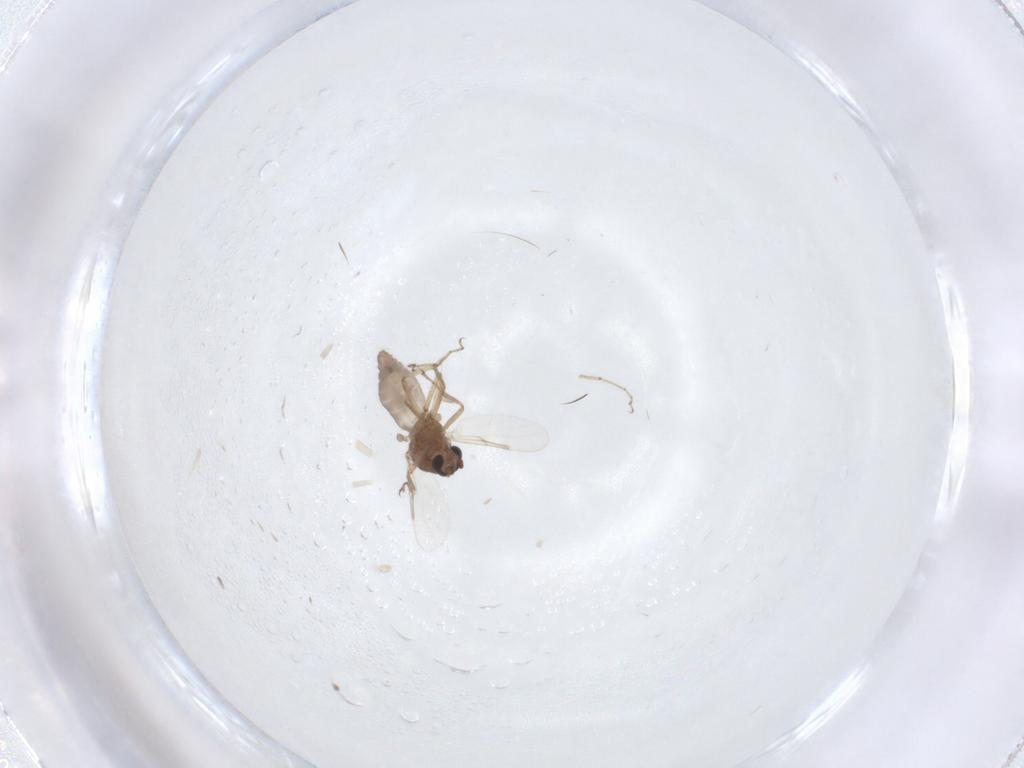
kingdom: Animalia
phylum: Arthropoda
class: Insecta
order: Diptera
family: Ceratopogonidae
